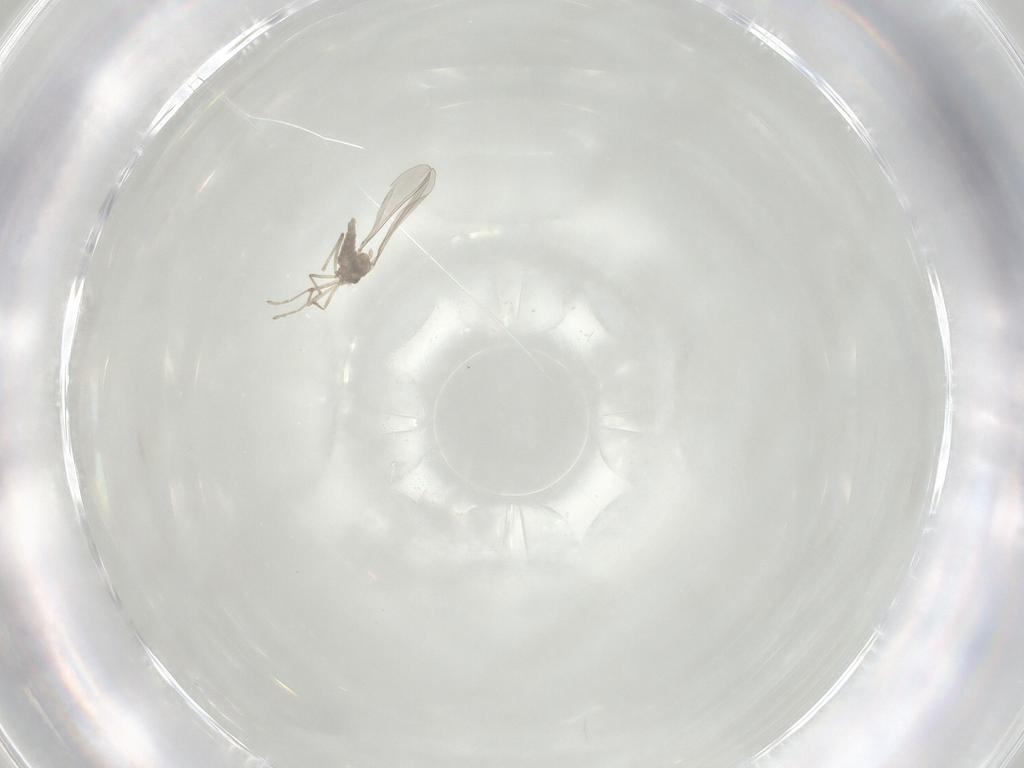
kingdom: Animalia
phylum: Arthropoda
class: Insecta
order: Diptera
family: Cecidomyiidae
